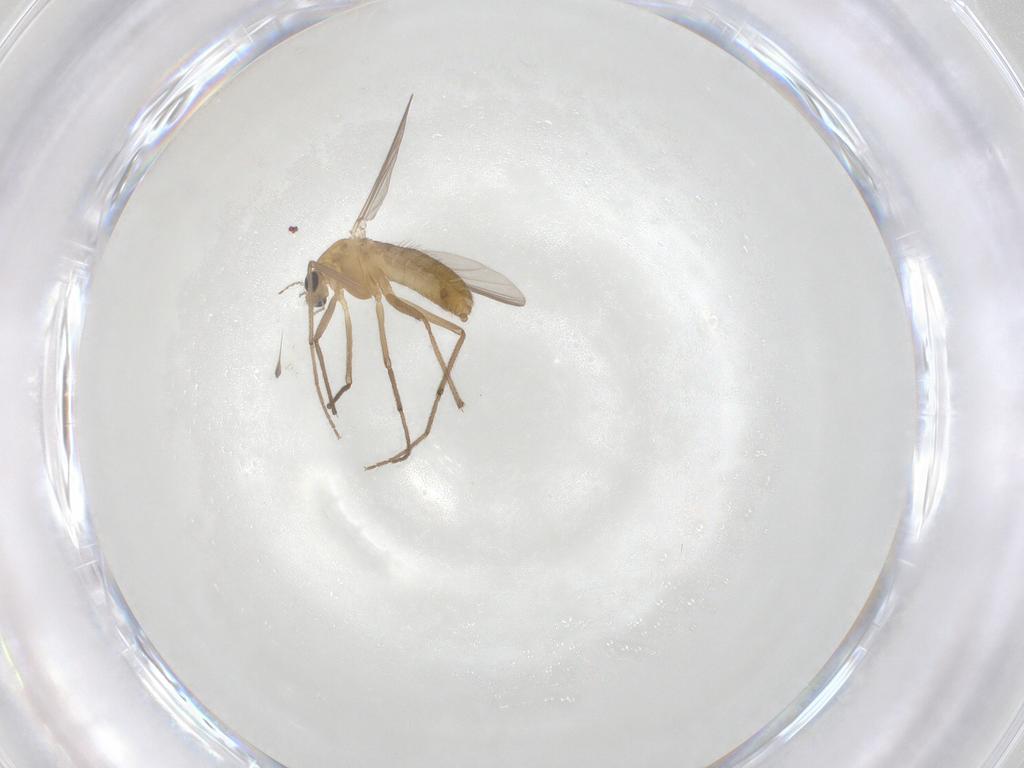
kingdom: Animalia
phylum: Arthropoda
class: Insecta
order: Diptera
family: Chironomidae
